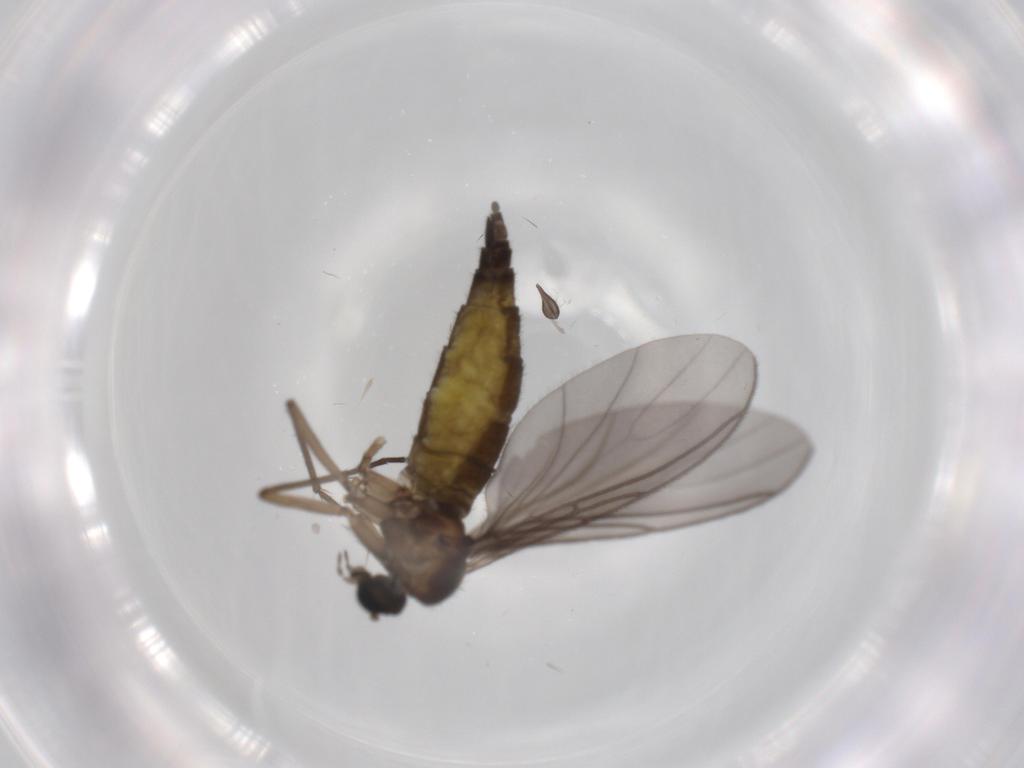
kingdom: Animalia
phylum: Arthropoda
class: Insecta
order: Diptera
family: Sciaridae
